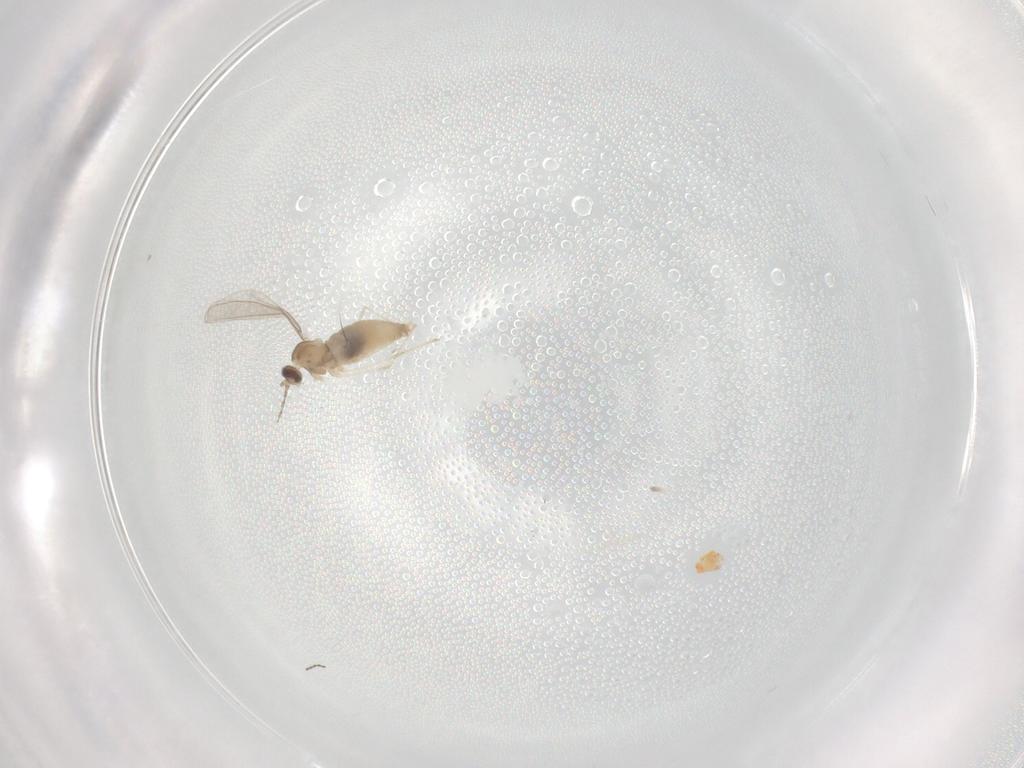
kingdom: Animalia
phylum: Arthropoda
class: Insecta
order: Diptera
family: Cecidomyiidae
